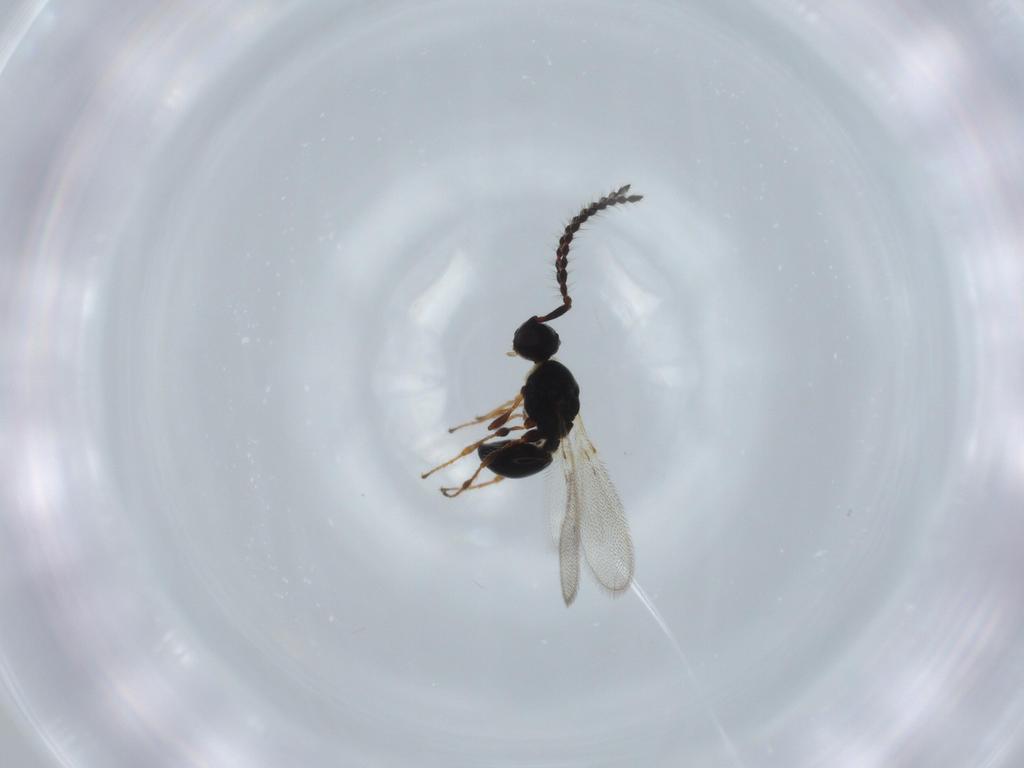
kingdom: Animalia
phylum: Arthropoda
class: Insecta
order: Hymenoptera
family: Diapriidae
